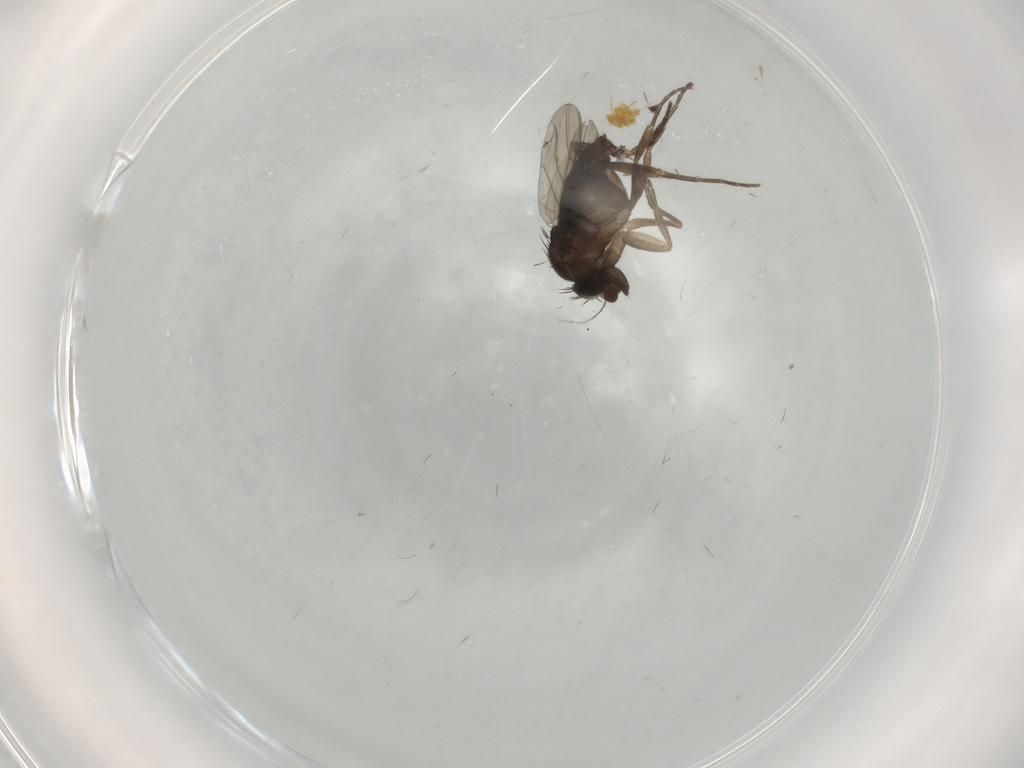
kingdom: Animalia
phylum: Arthropoda
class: Insecta
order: Diptera
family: Phoridae
